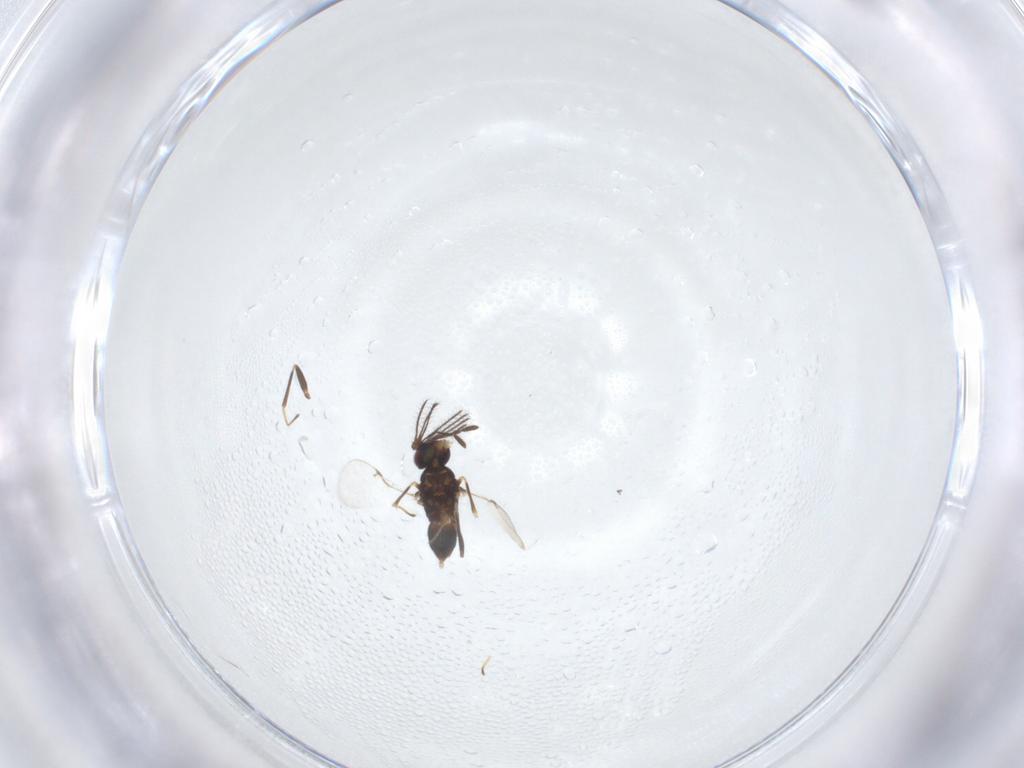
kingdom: Animalia
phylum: Arthropoda
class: Insecta
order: Hymenoptera
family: Encyrtidae
